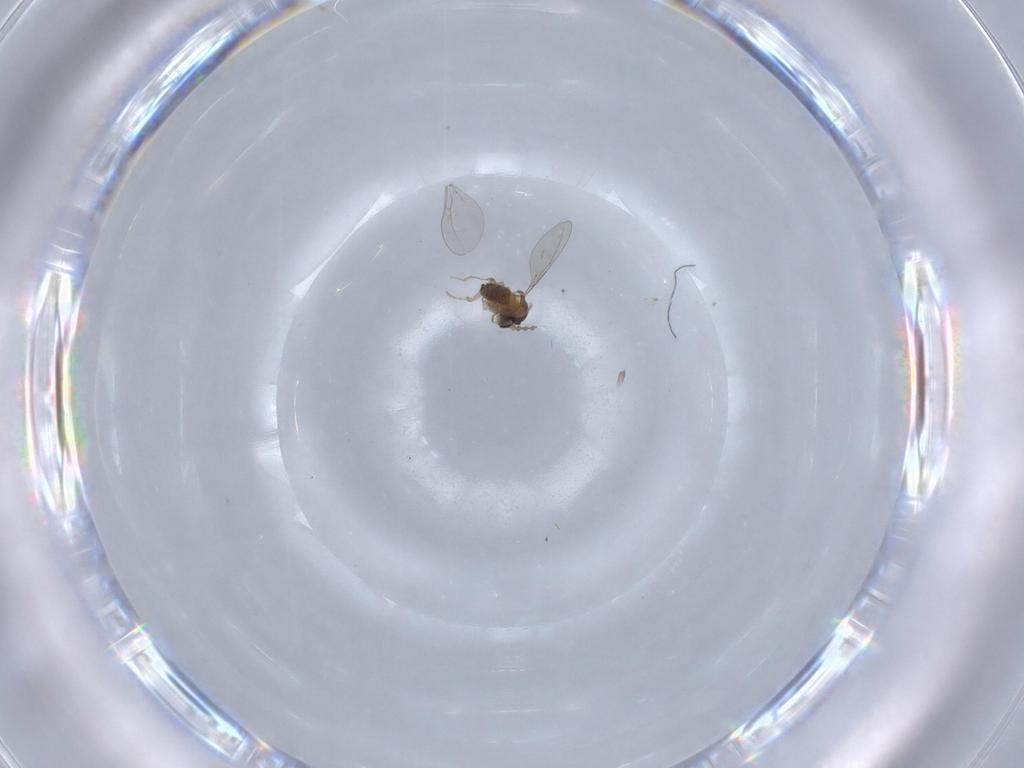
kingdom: Animalia
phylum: Arthropoda
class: Insecta
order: Diptera
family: Cecidomyiidae
